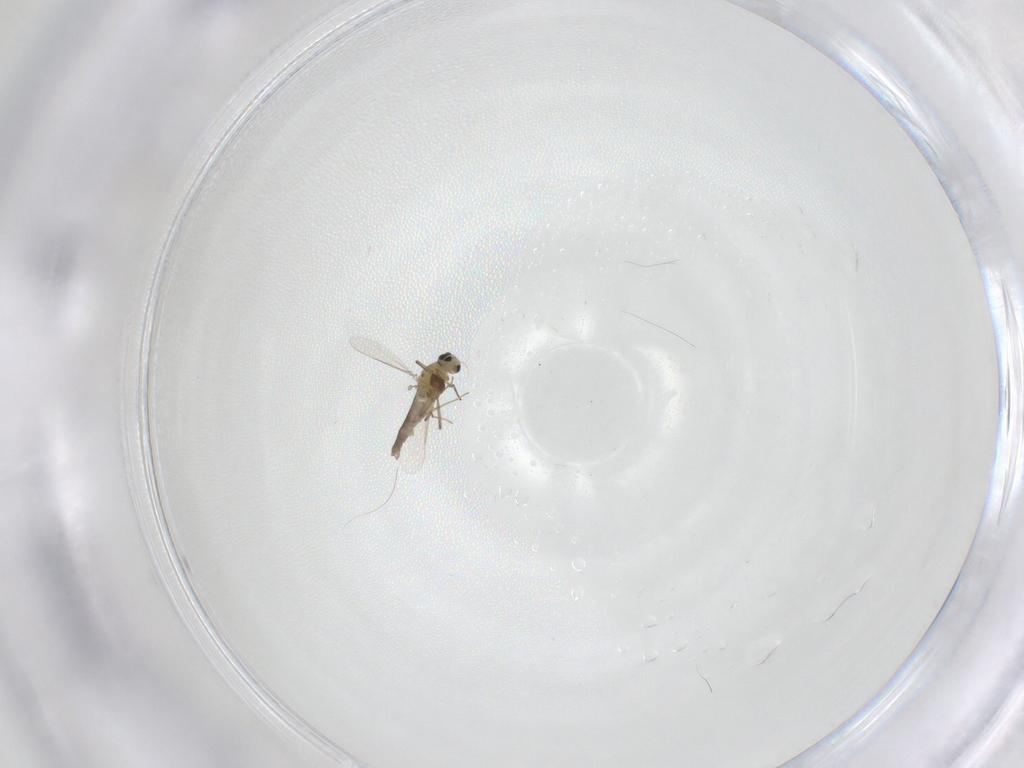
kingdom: Animalia
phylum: Arthropoda
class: Insecta
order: Diptera
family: Chironomidae
